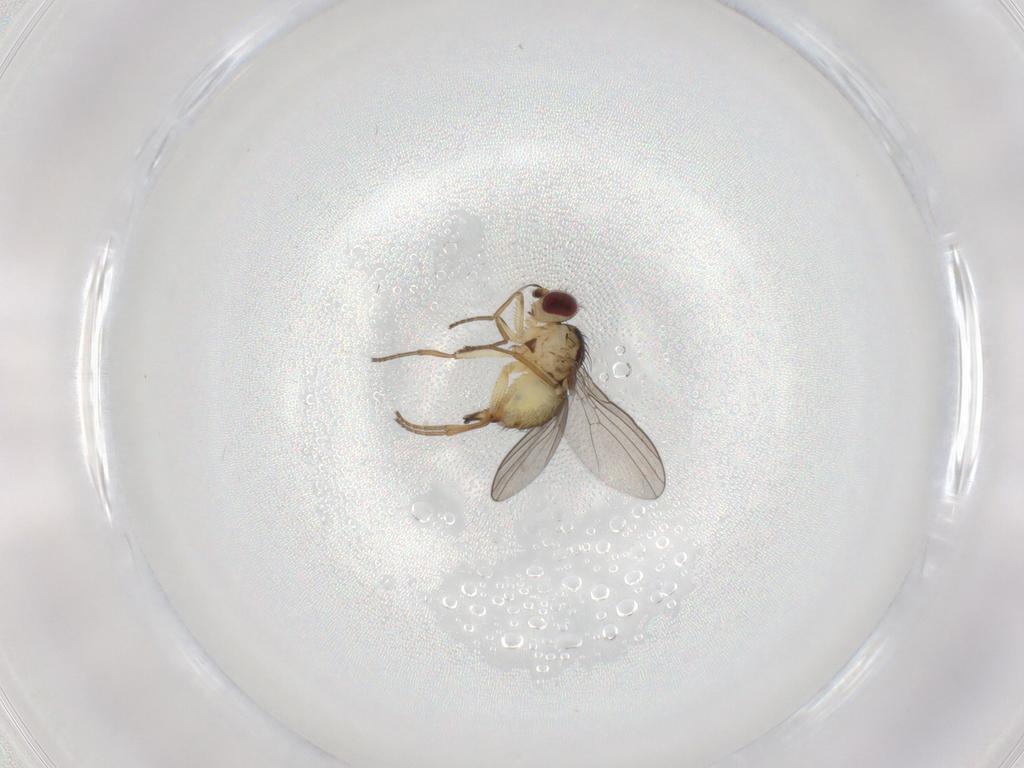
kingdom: Animalia
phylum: Arthropoda
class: Insecta
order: Diptera
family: Agromyzidae
